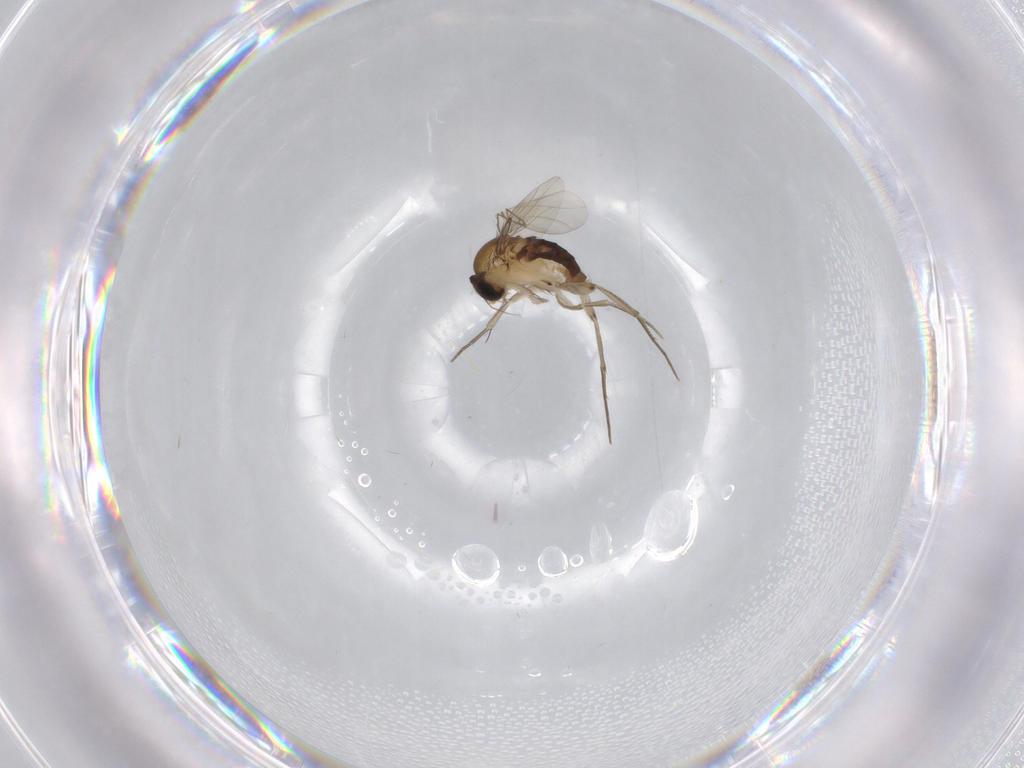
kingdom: Animalia
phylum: Arthropoda
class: Insecta
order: Diptera
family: Phoridae
